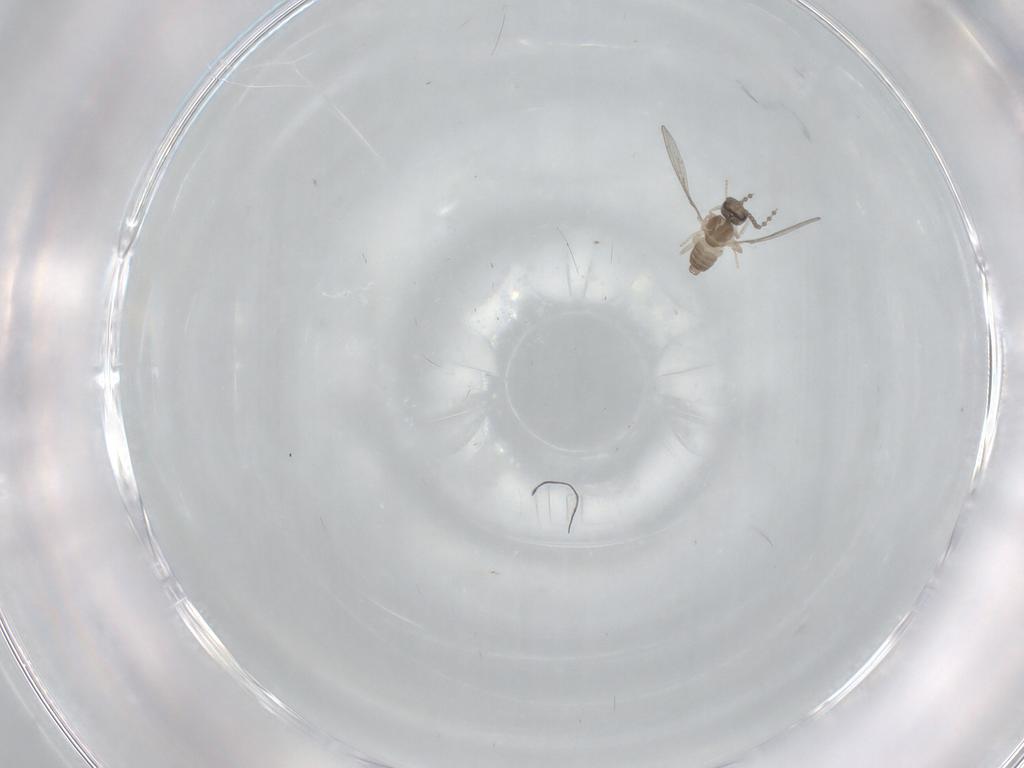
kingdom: Animalia
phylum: Arthropoda
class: Insecta
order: Diptera
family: Cecidomyiidae
